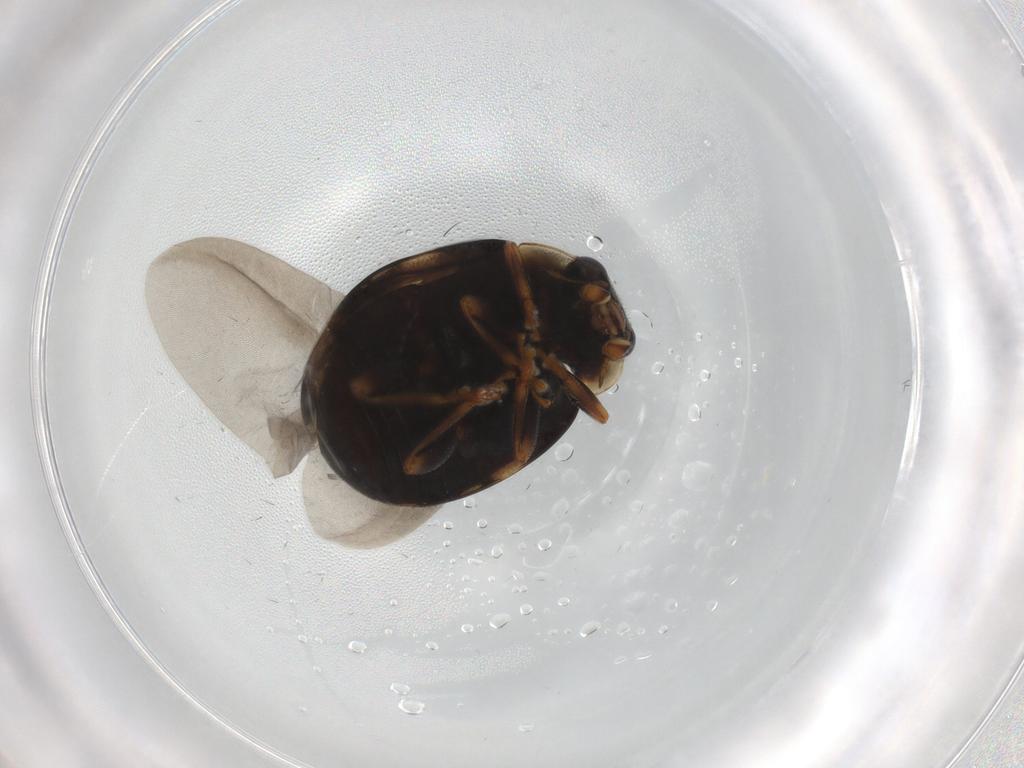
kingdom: Animalia
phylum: Arthropoda
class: Insecta
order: Coleoptera
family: Coccinellidae
